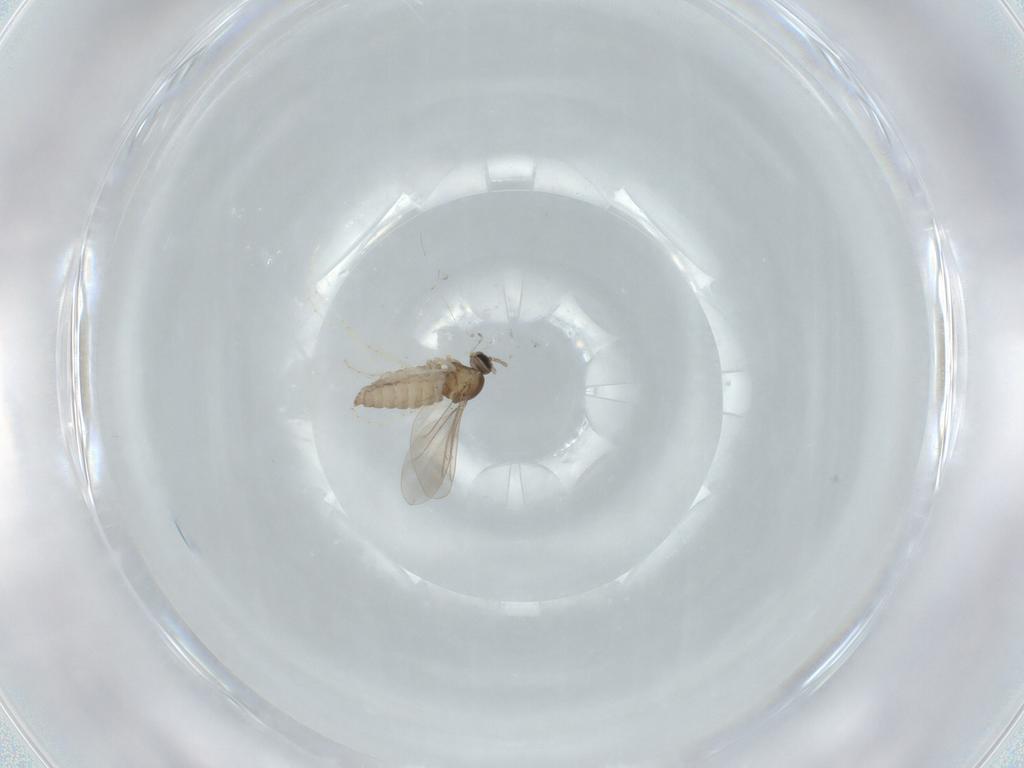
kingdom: Animalia
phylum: Arthropoda
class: Insecta
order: Diptera
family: Cecidomyiidae
